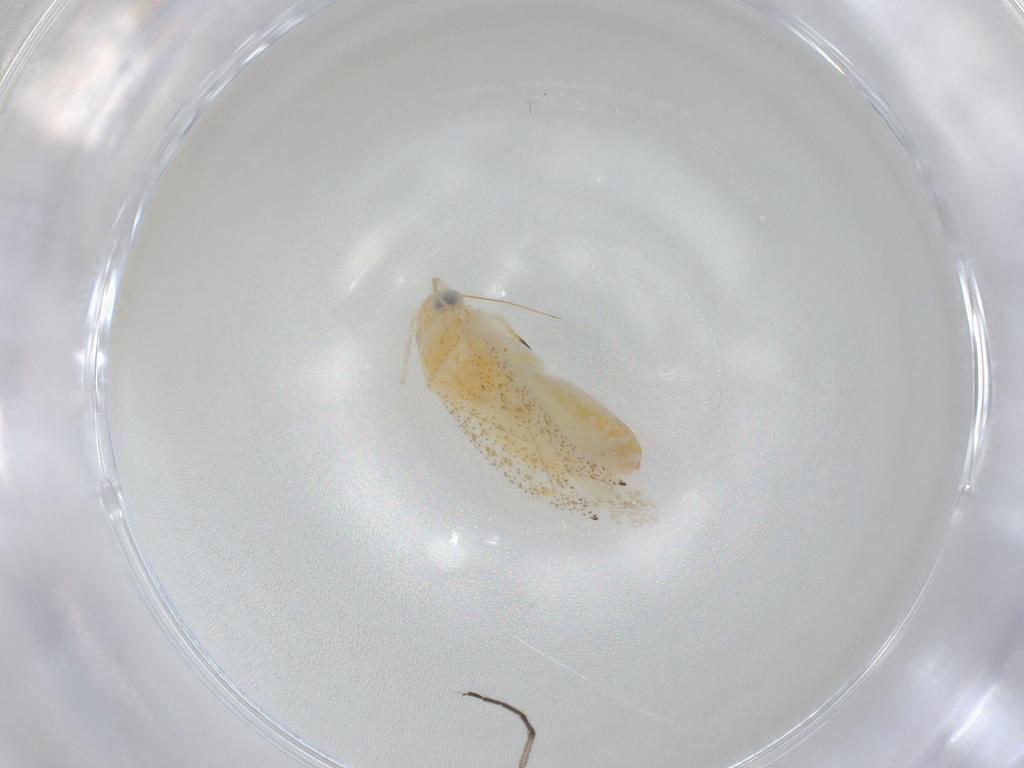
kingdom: Animalia
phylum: Arthropoda
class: Insecta
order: Hemiptera
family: Miridae
